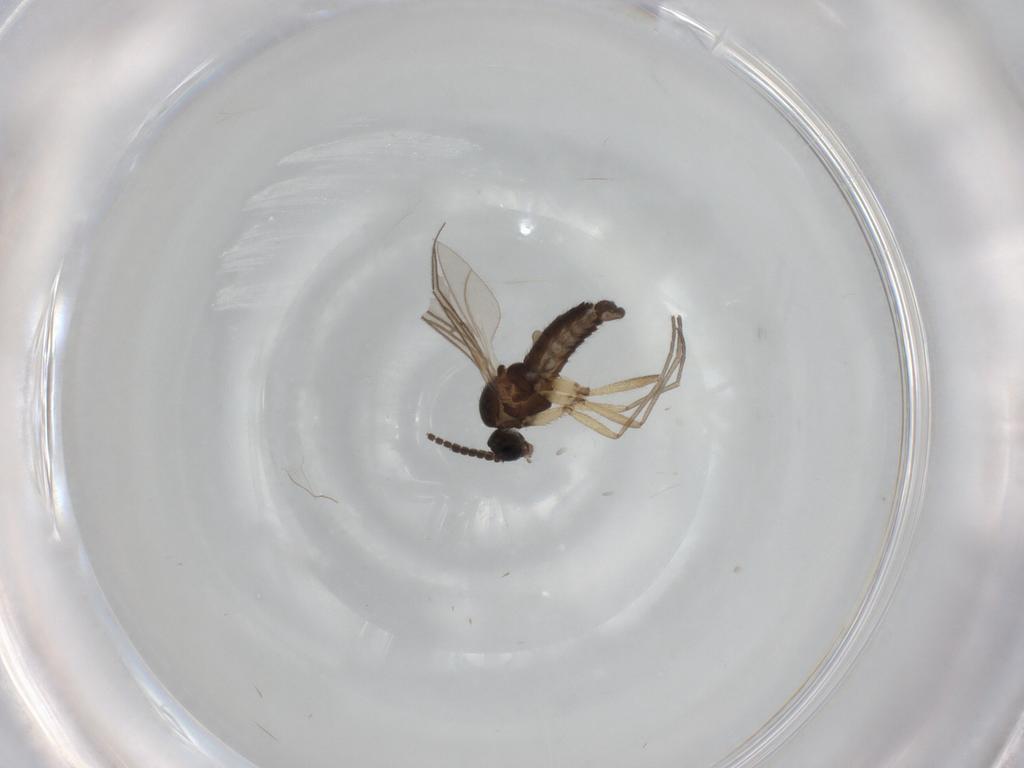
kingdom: Animalia
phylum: Arthropoda
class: Insecta
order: Diptera
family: Sciaridae
